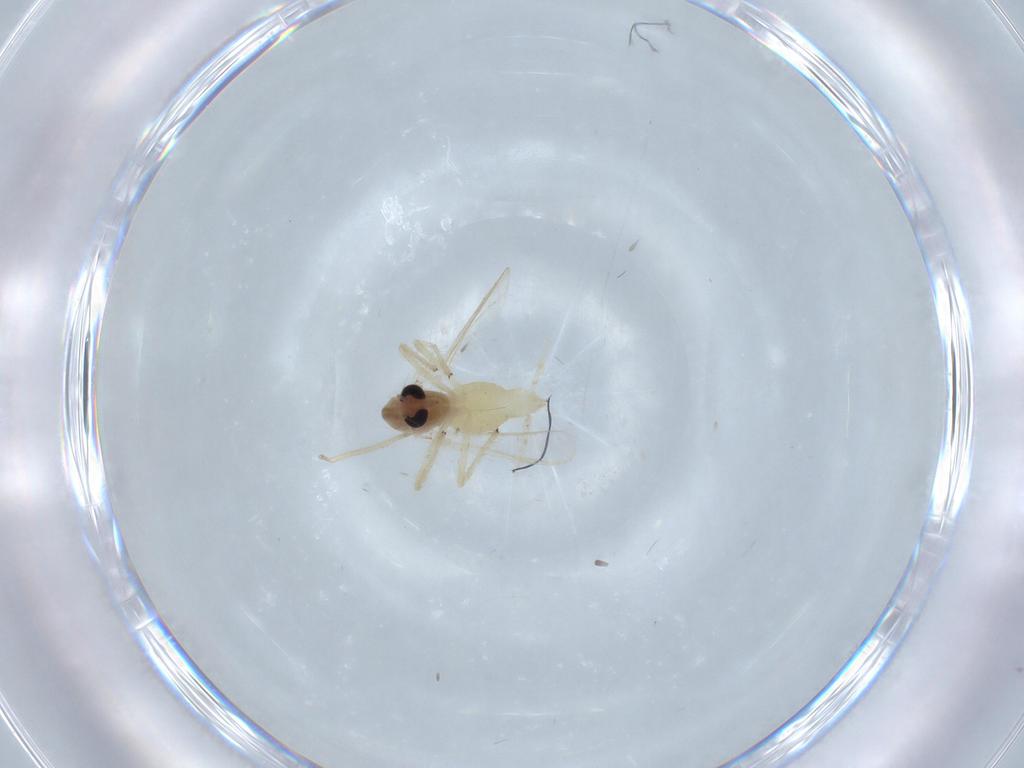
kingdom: Animalia
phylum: Arthropoda
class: Insecta
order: Diptera
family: Chironomidae
